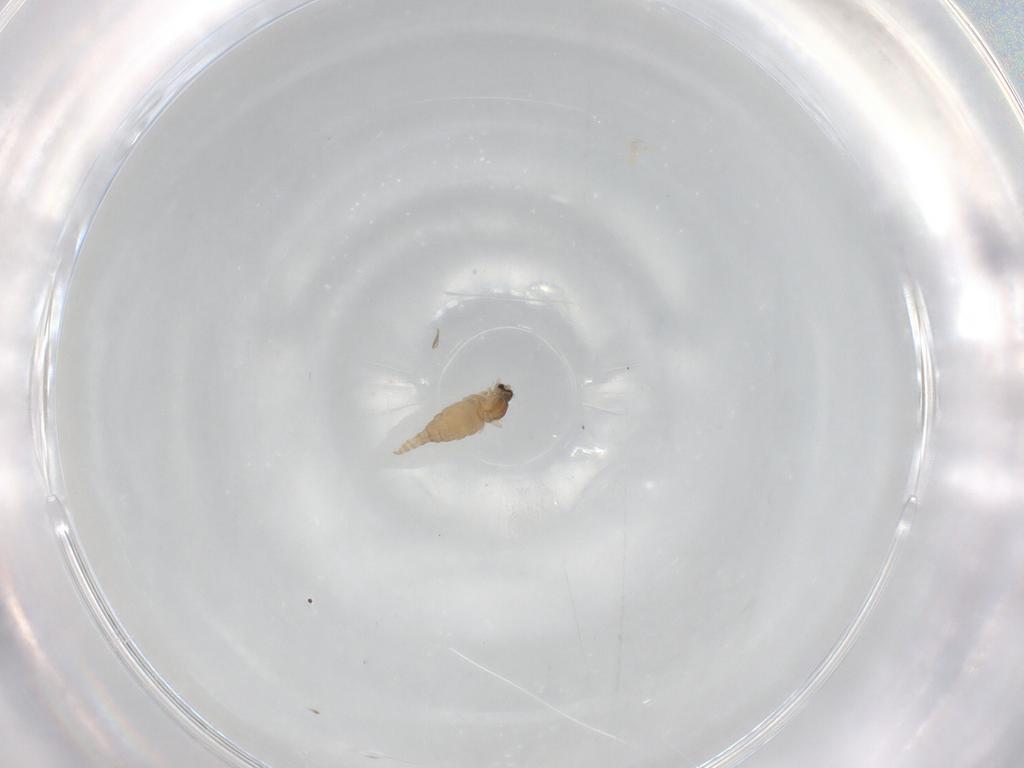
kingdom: Animalia
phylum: Arthropoda
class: Insecta
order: Diptera
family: Cecidomyiidae
